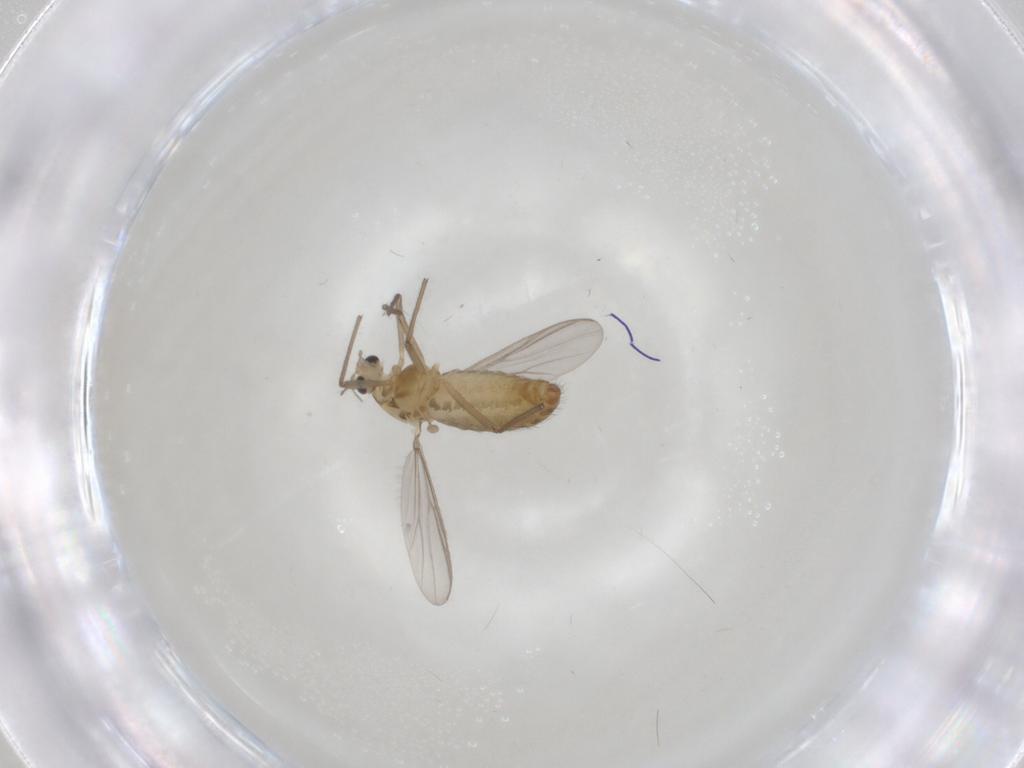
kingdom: Animalia
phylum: Arthropoda
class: Insecta
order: Diptera
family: Chironomidae
